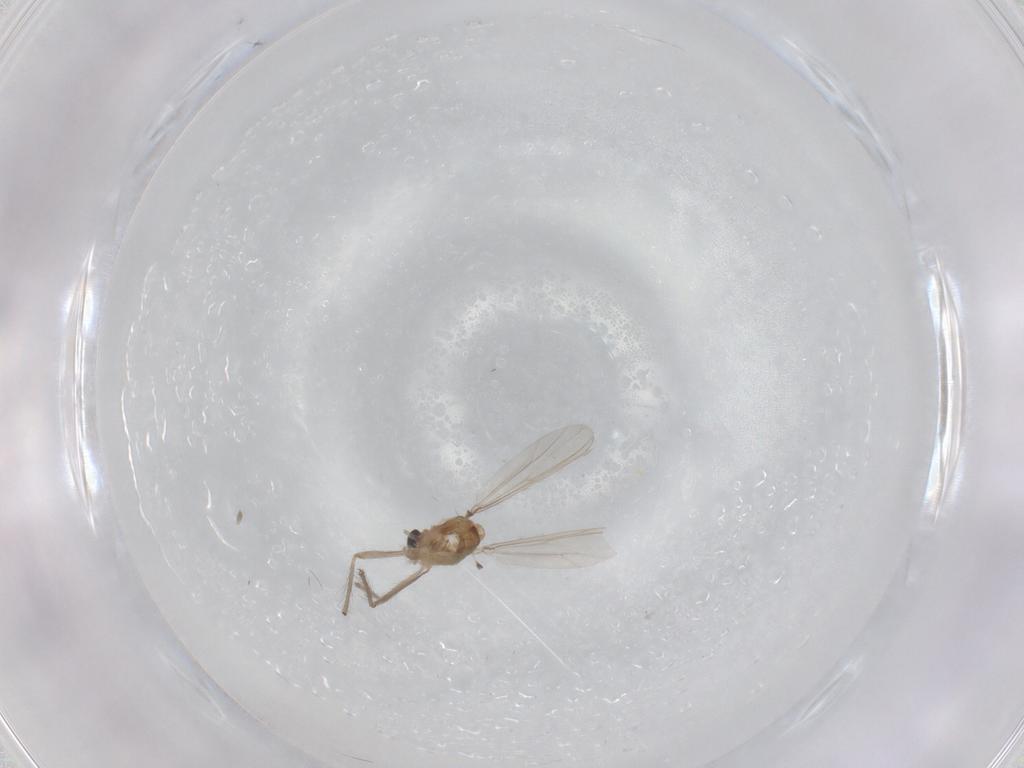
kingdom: Animalia
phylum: Arthropoda
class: Insecta
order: Diptera
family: Chironomidae
